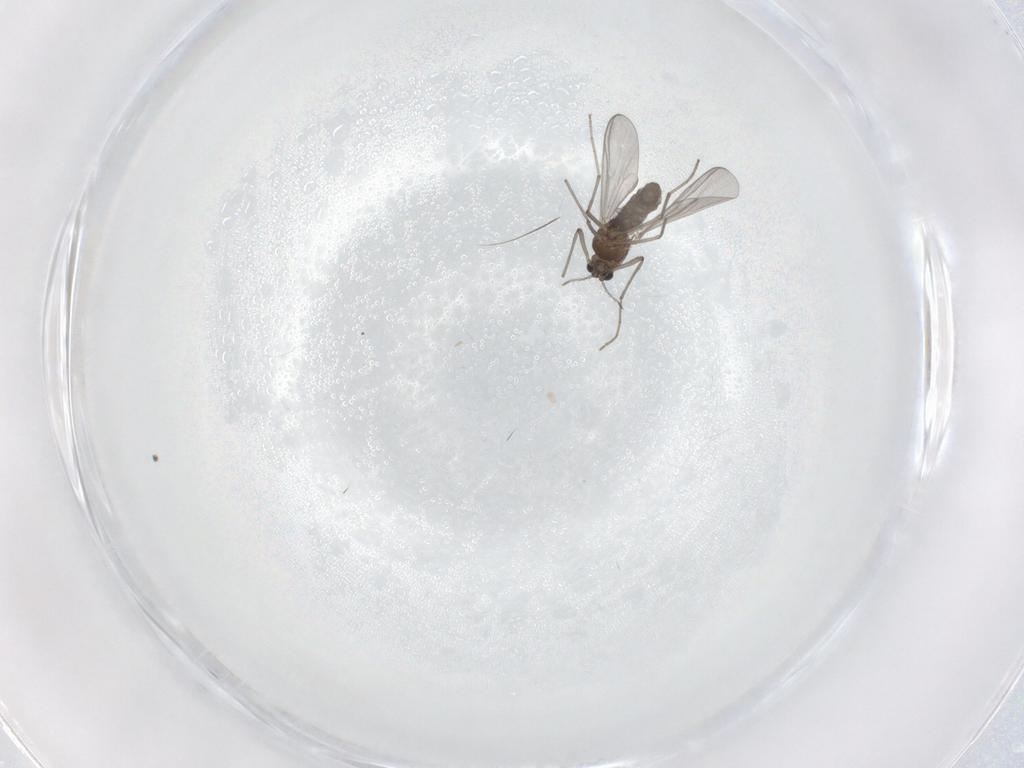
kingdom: Animalia
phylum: Arthropoda
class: Insecta
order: Diptera
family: Chironomidae
